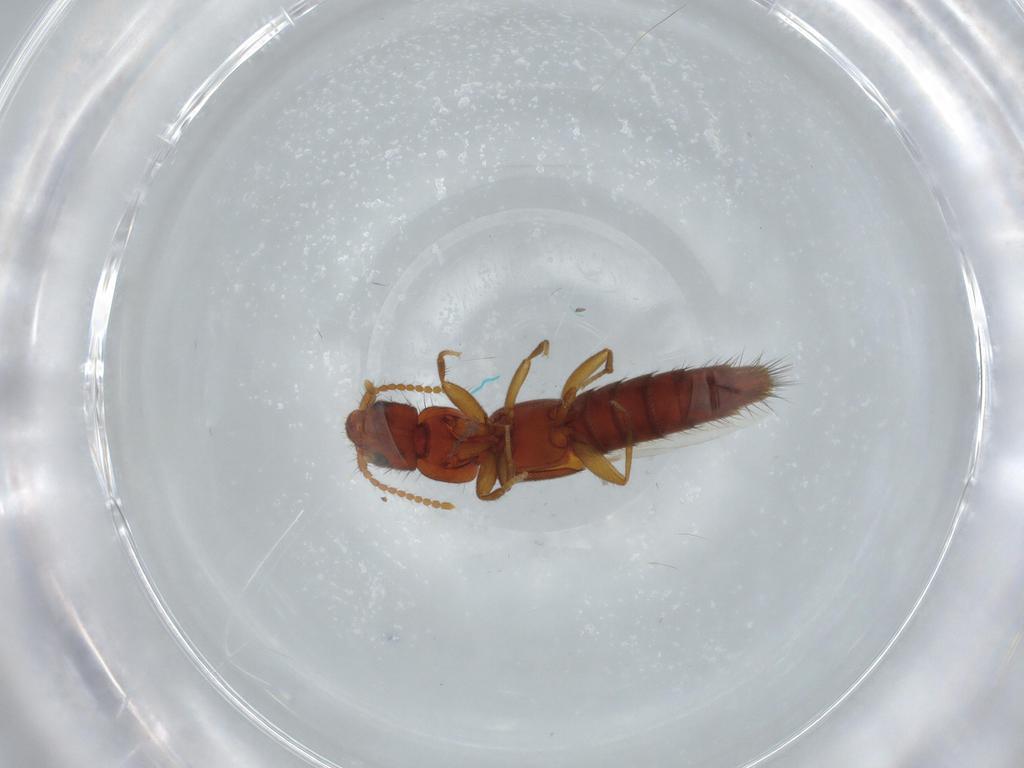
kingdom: Animalia
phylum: Arthropoda
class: Insecta
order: Coleoptera
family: Staphylinidae
